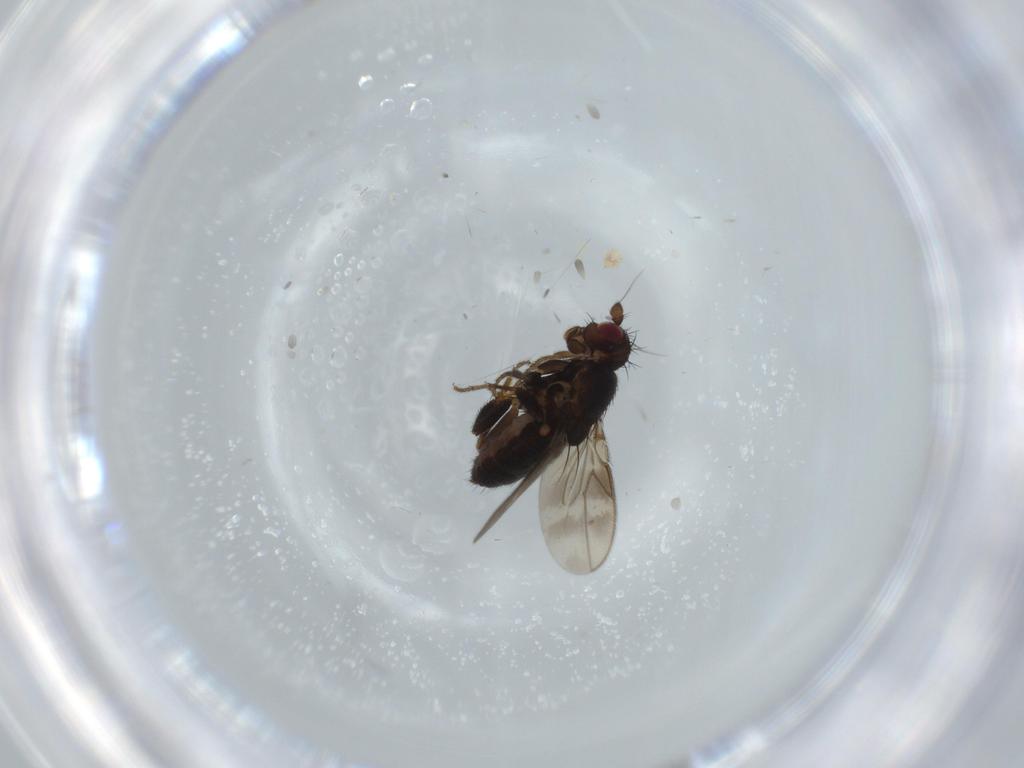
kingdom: Animalia
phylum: Arthropoda
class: Insecta
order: Diptera
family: Sphaeroceridae
